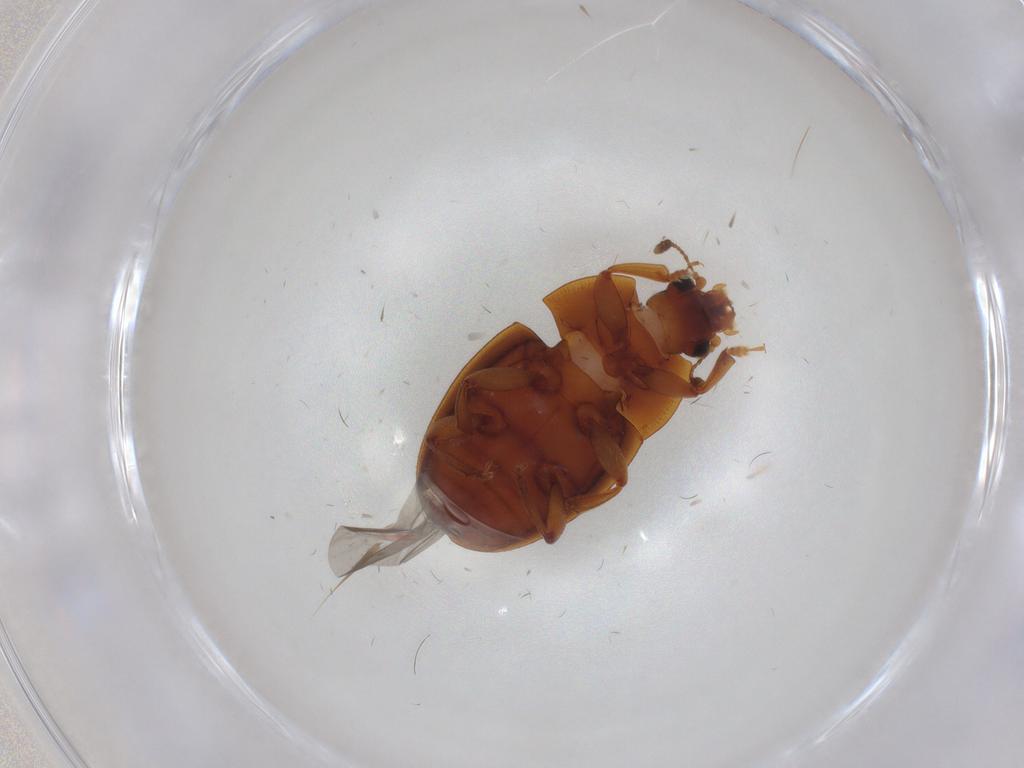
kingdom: Animalia
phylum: Arthropoda
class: Insecta
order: Coleoptera
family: Nitidulidae
